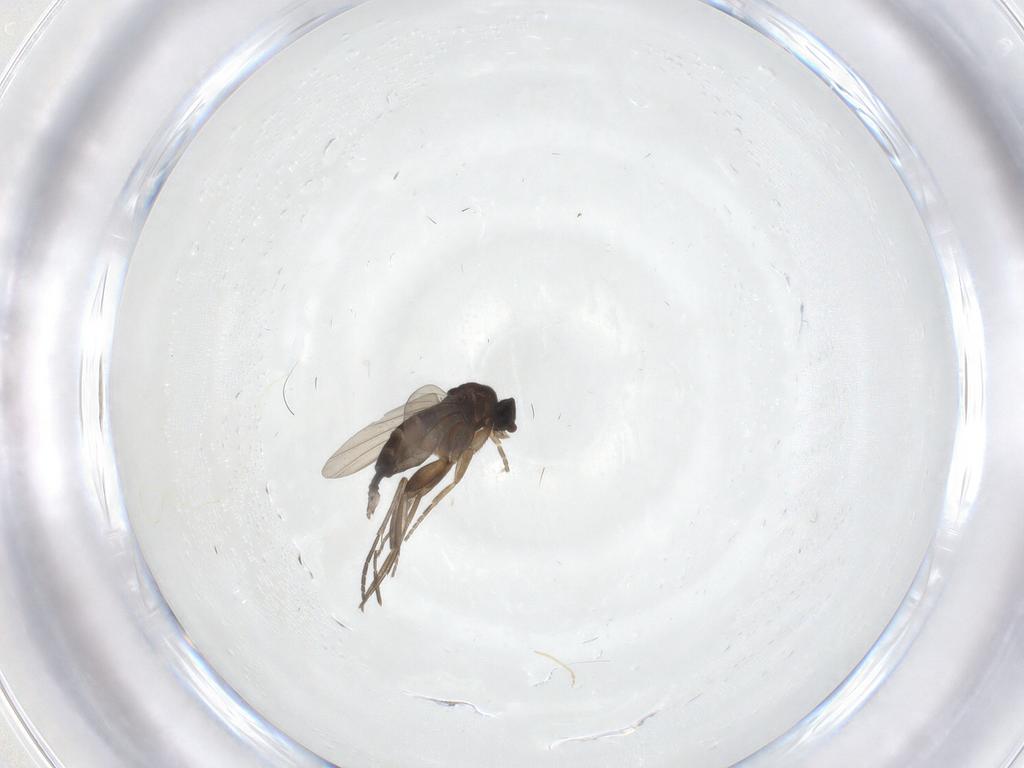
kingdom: Animalia
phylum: Arthropoda
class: Insecta
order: Diptera
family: Phoridae
